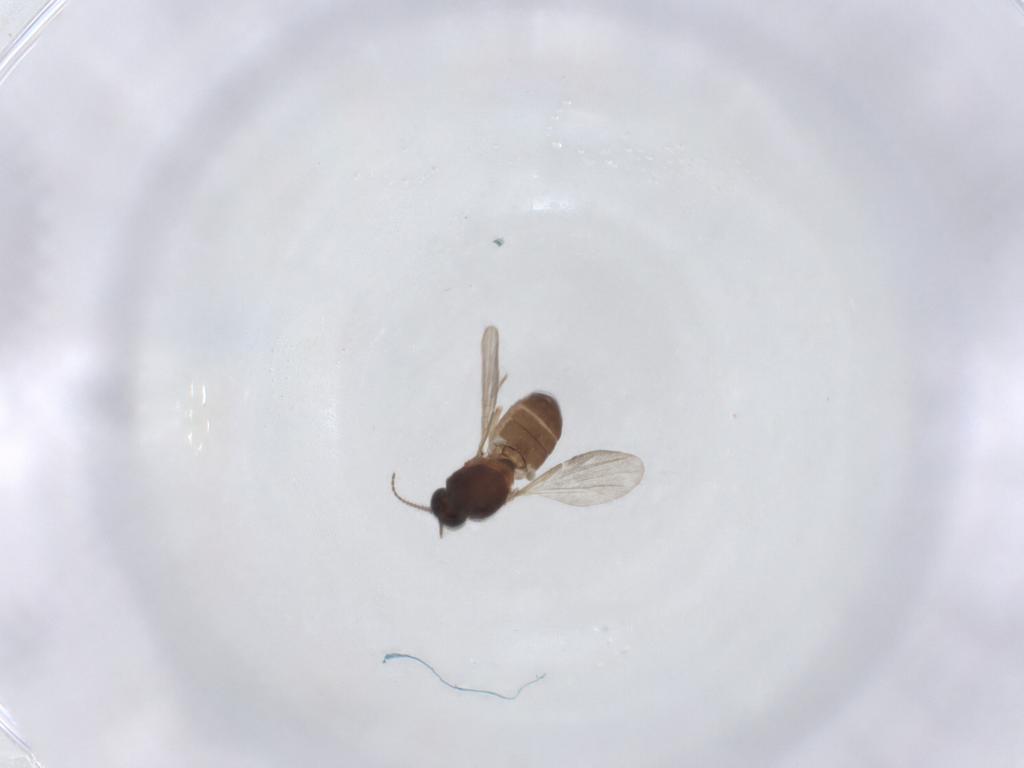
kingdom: Animalia
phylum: Arthropoda
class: Insecta
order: Diptera
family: Ceratopogonidae
